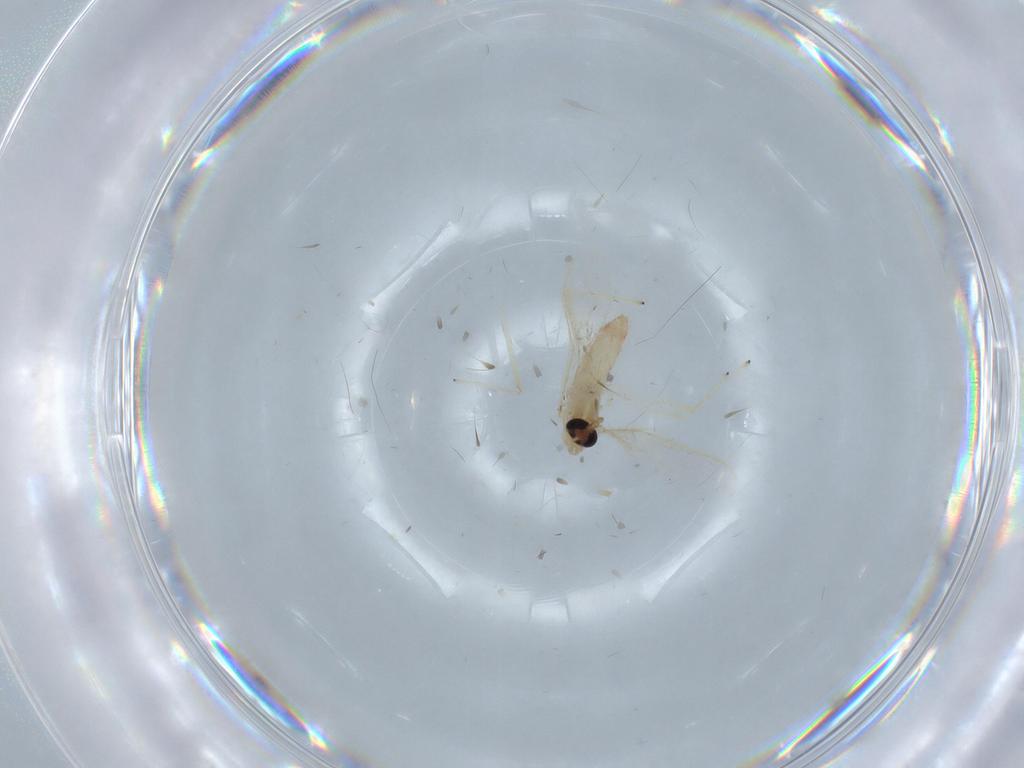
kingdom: Animalia
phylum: Arthropoda
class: Insecta
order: Diptera
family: Chironomidae
